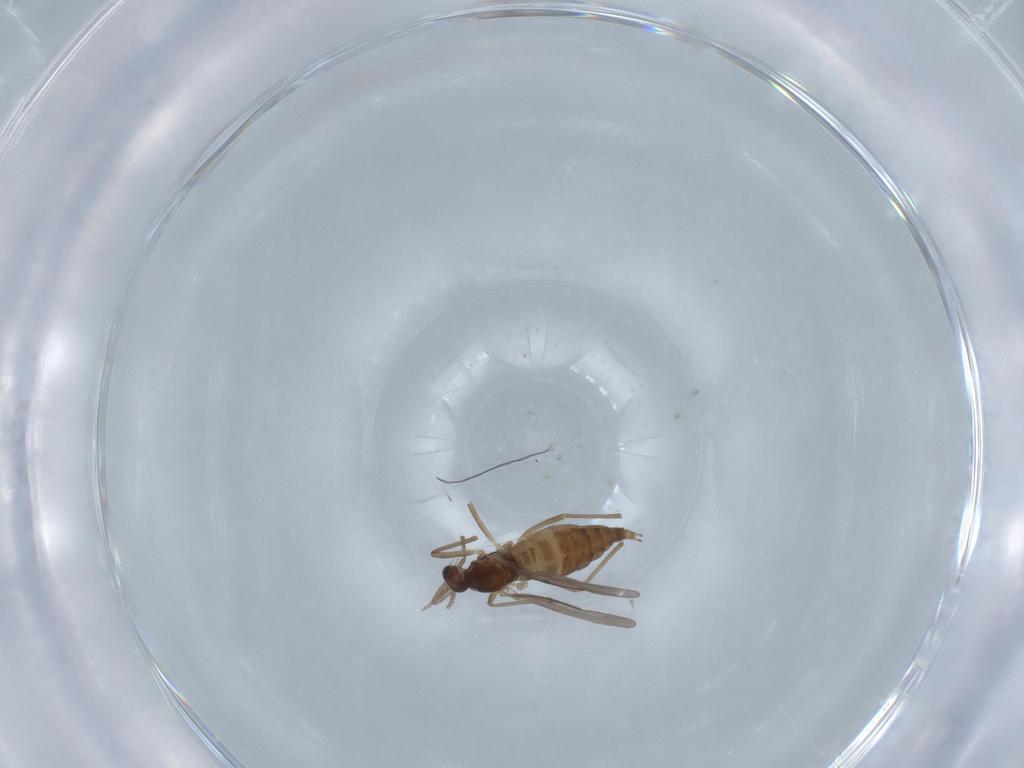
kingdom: Animalia
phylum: Arthropoda
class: Insecta
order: Diptera
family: Cecidomyiidae
